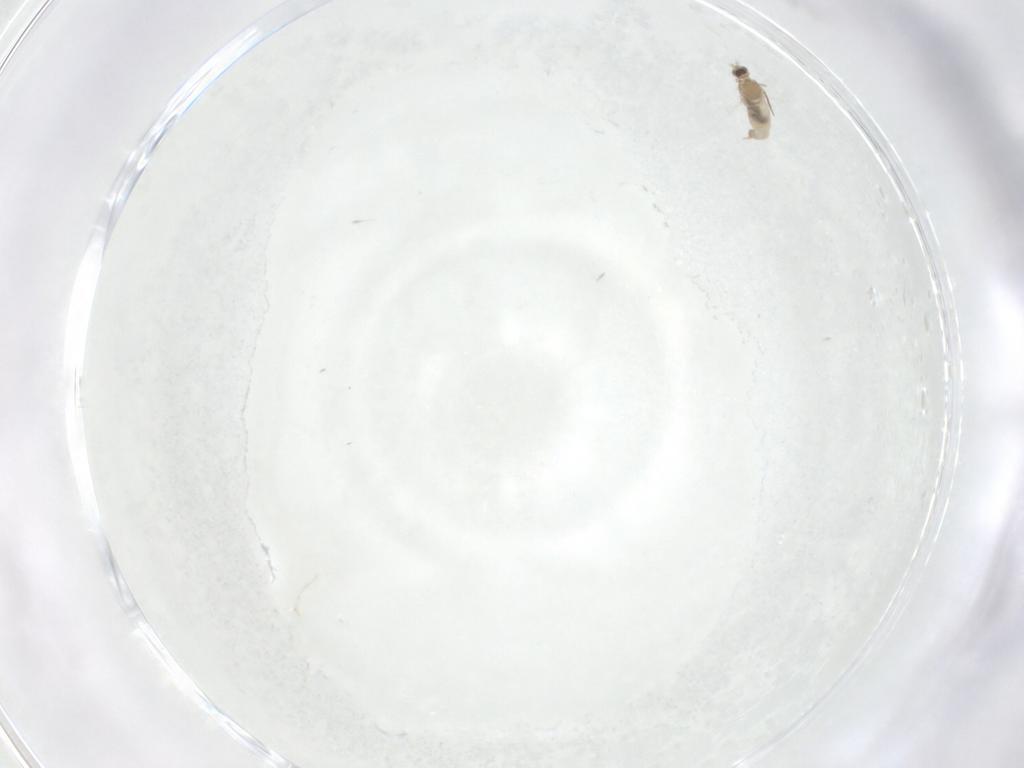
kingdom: Animalia
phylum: Arthropoda
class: Insecta
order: Diptera
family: Cecidomyiidae
